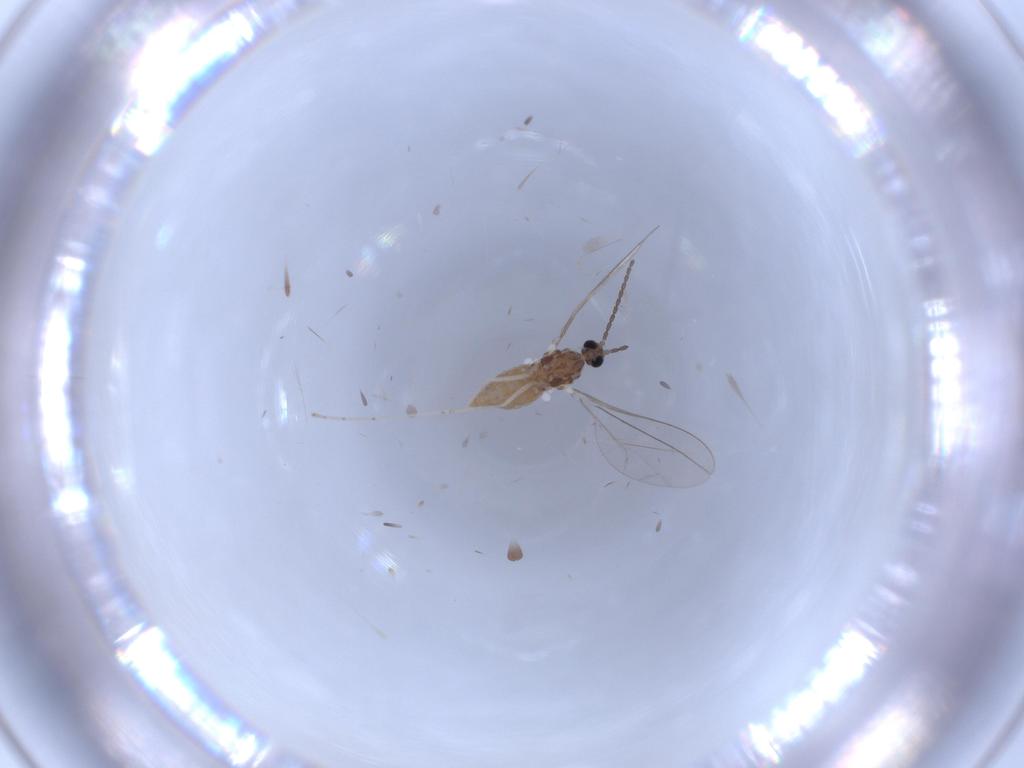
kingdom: Animalia
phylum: Arthropoda
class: Insecta
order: Diptera
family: Cecidomyiidae
